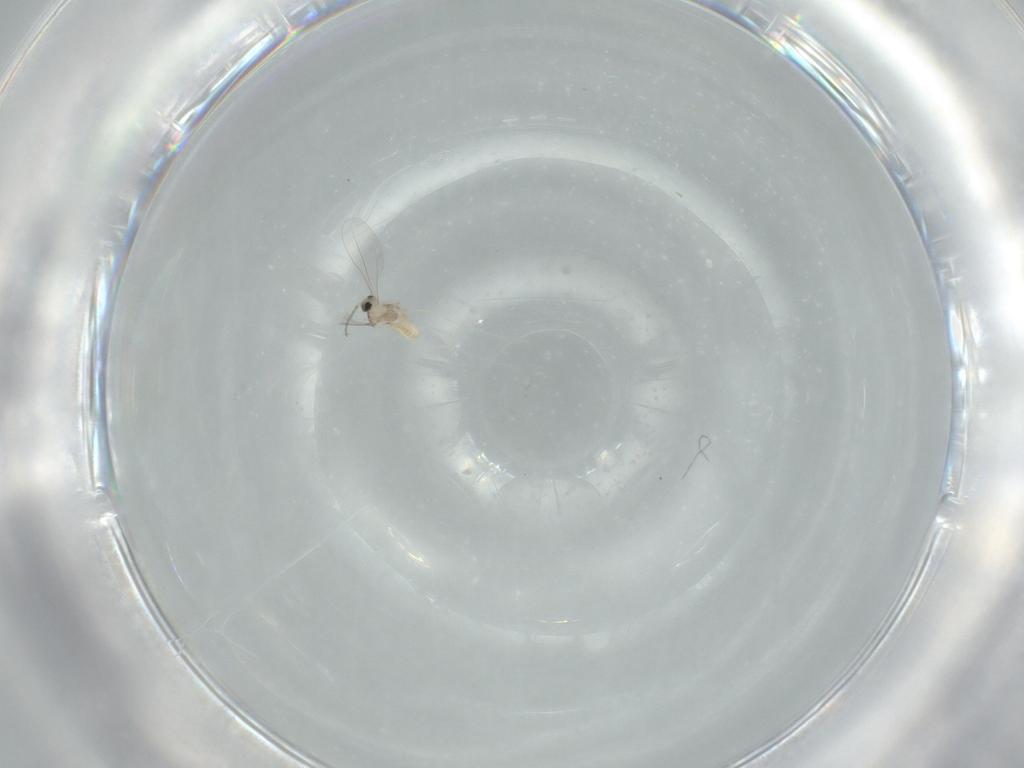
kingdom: Animalia
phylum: Arthropoda
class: Insecta
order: Diptera
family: Cecidomyiidae
